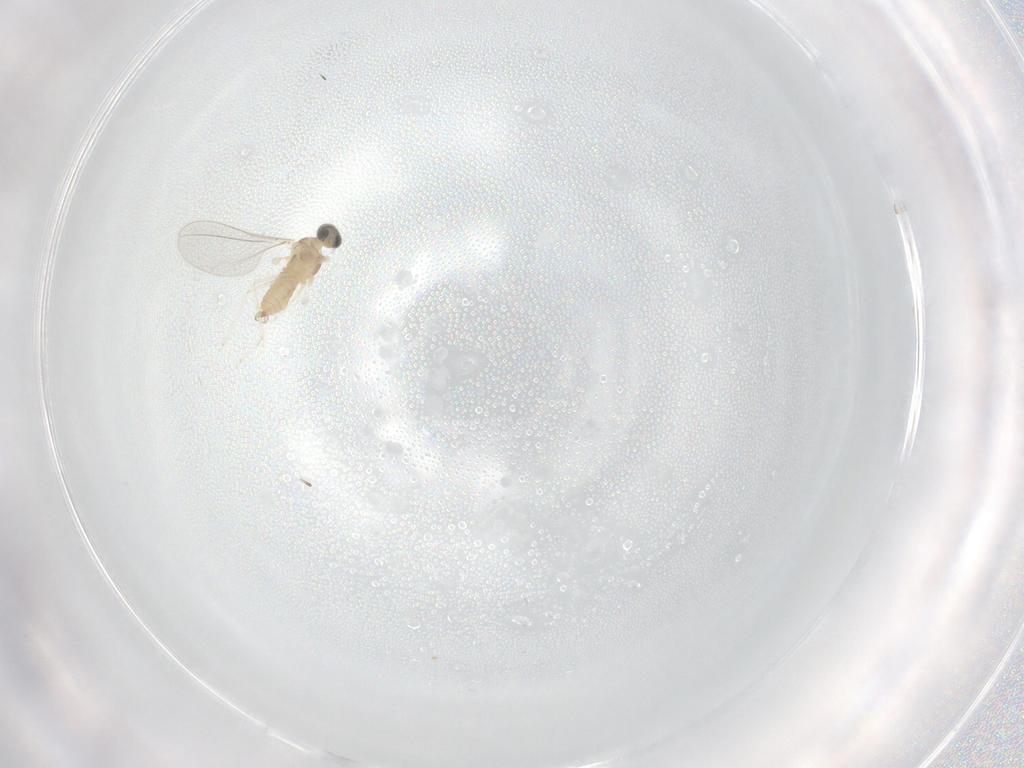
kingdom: Animalia
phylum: Arthropoda
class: Insecta
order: Diptera
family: Cecidomyiidae
